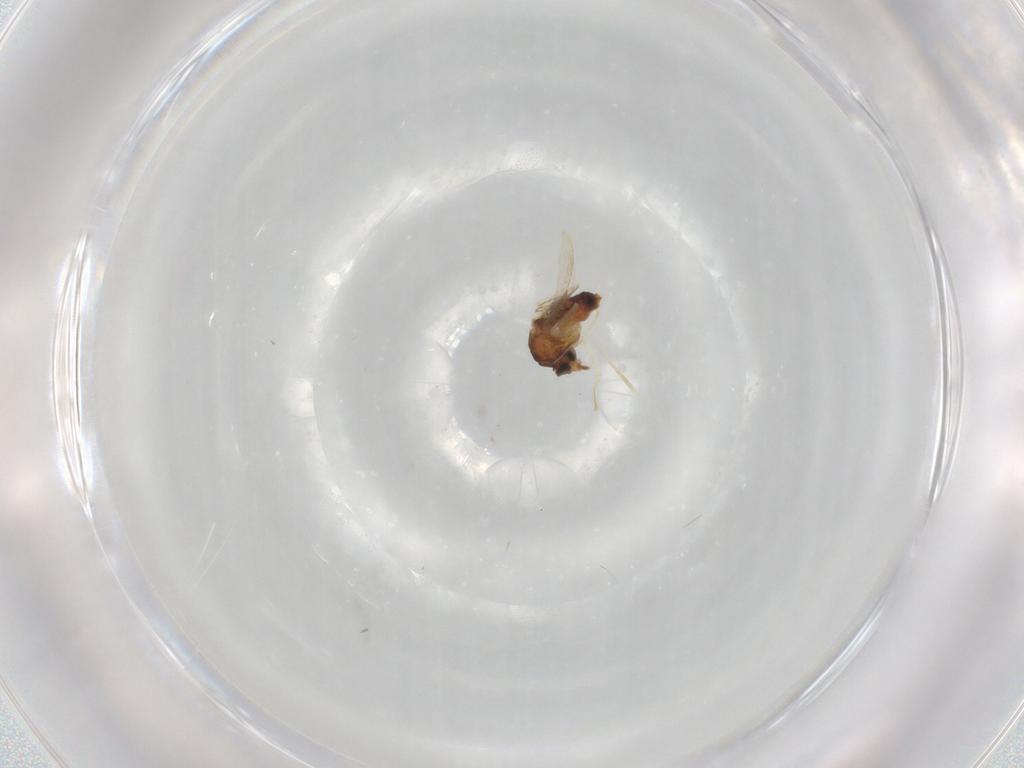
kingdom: Animalia
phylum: Arthropoda
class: Insecta
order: Diptera
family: Ceratopogonidae
